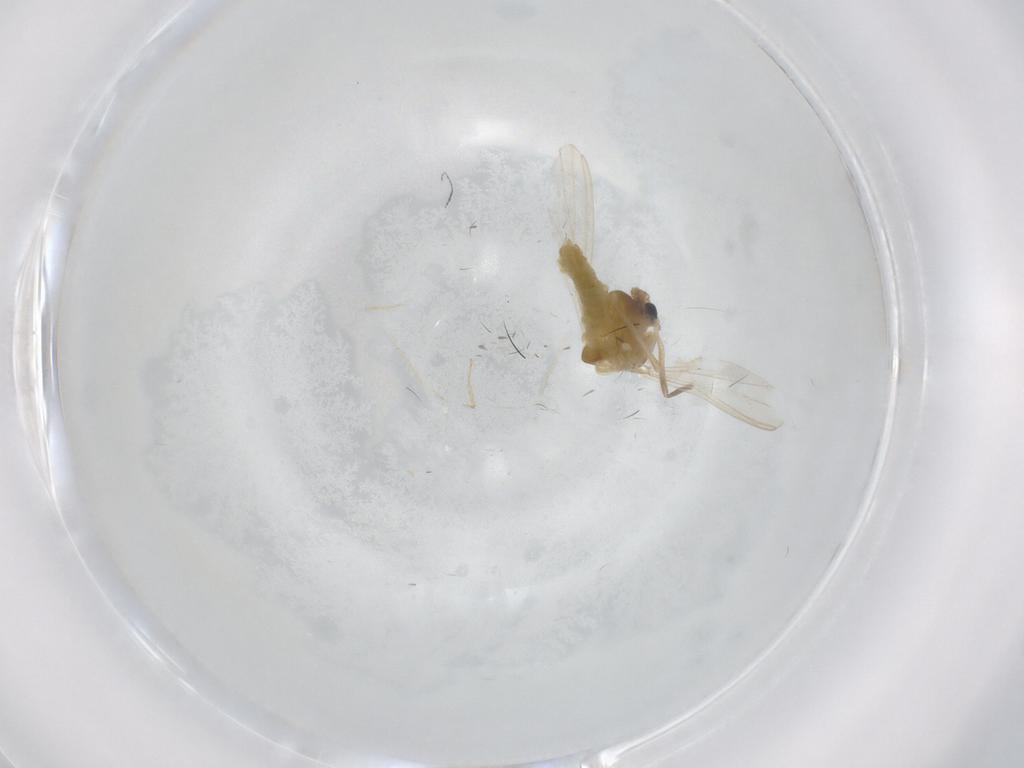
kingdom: Animalia
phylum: Arthropoda
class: Insecta
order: Diptera
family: Chironomidae
